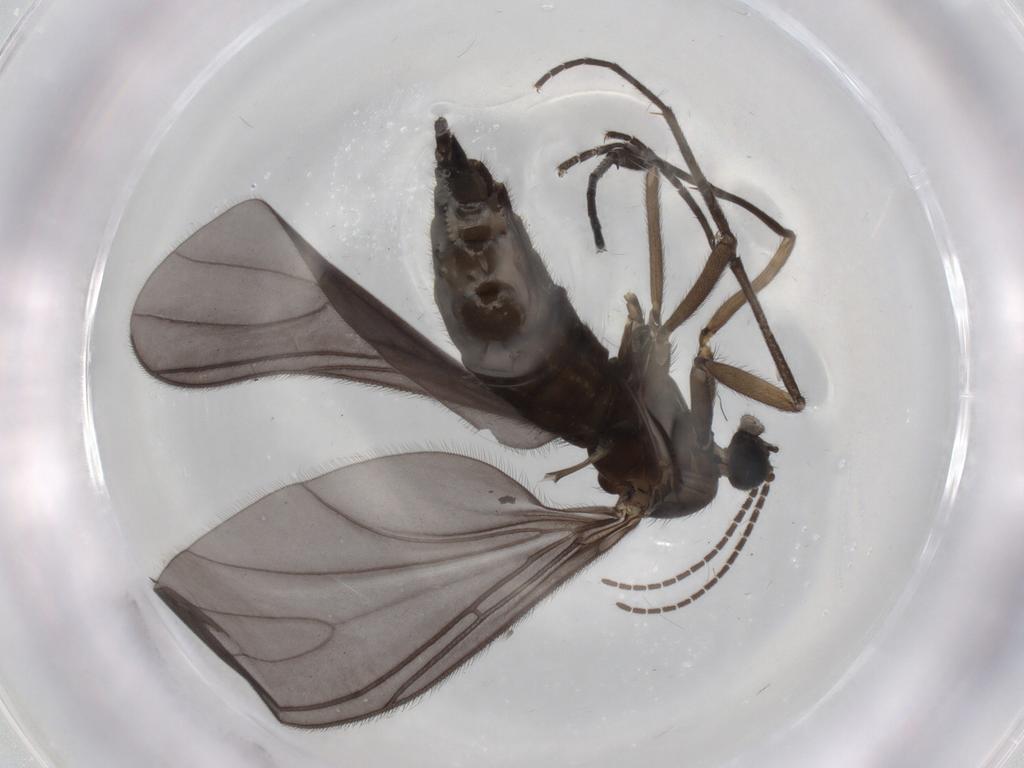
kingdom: Animalia
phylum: Arthropoda
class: Insecta
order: Diptera
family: Sciaridae
